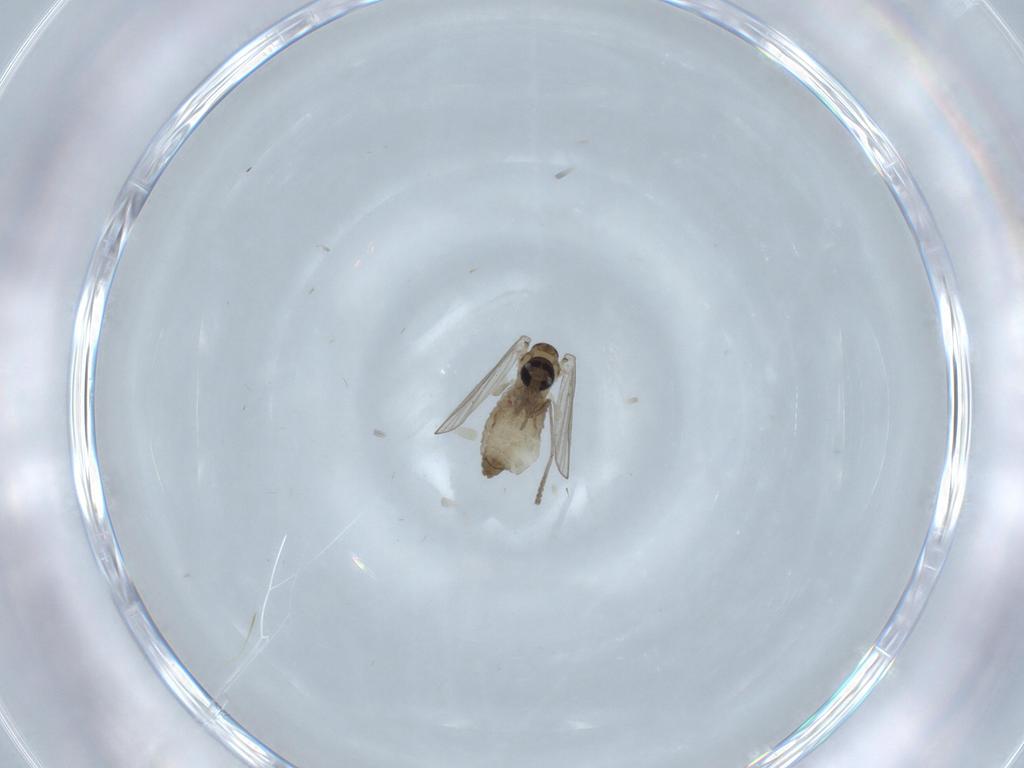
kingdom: Animalia
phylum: Arthropoda
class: Insecta
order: Diptera
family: Psychodidae
